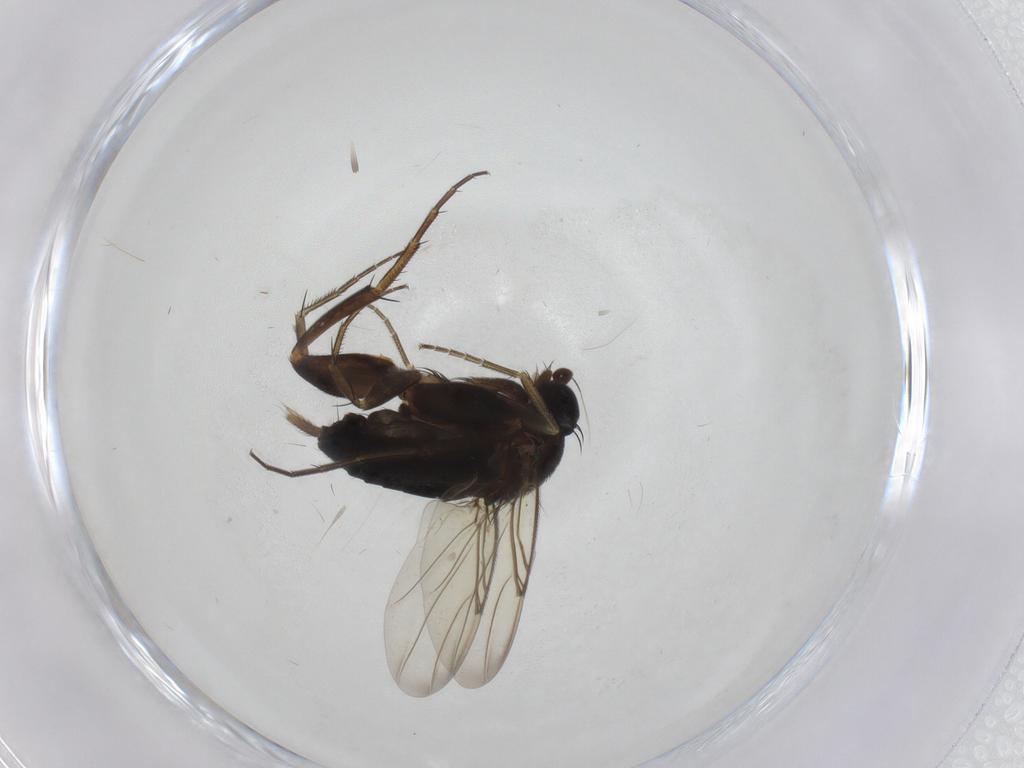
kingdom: Animalia
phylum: Arthropoda
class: Insecta
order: Diptera
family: Phoridae
